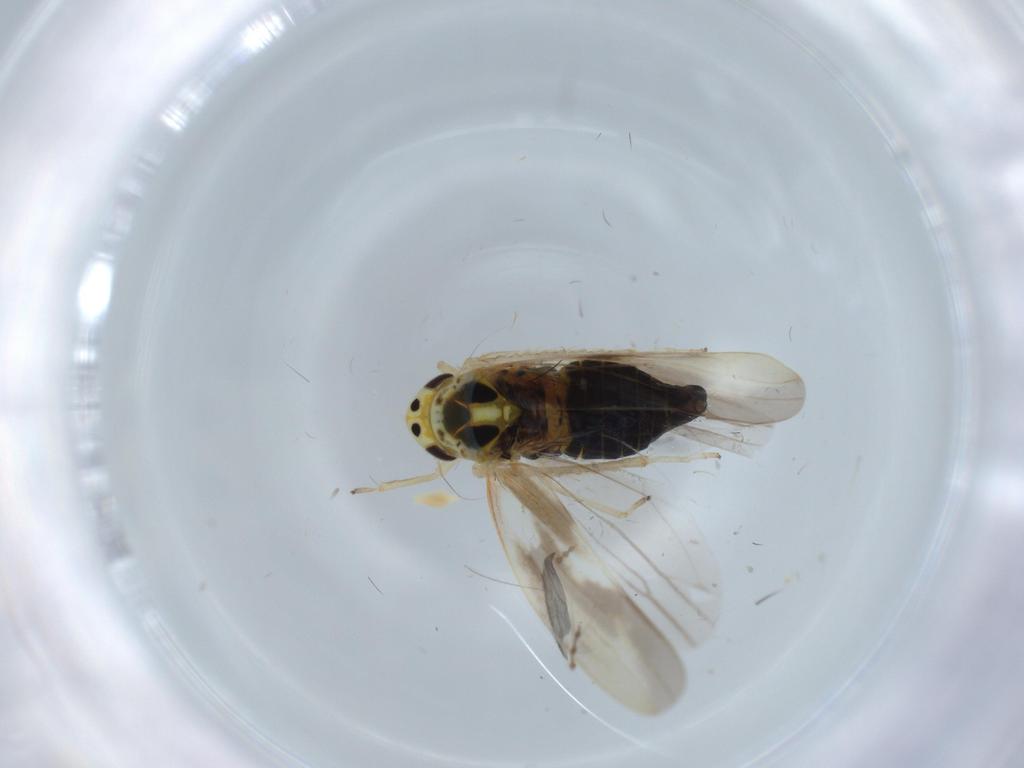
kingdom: Animalia
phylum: Arthropoda
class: Insecta
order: Hemiptera
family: Cicadellidae
